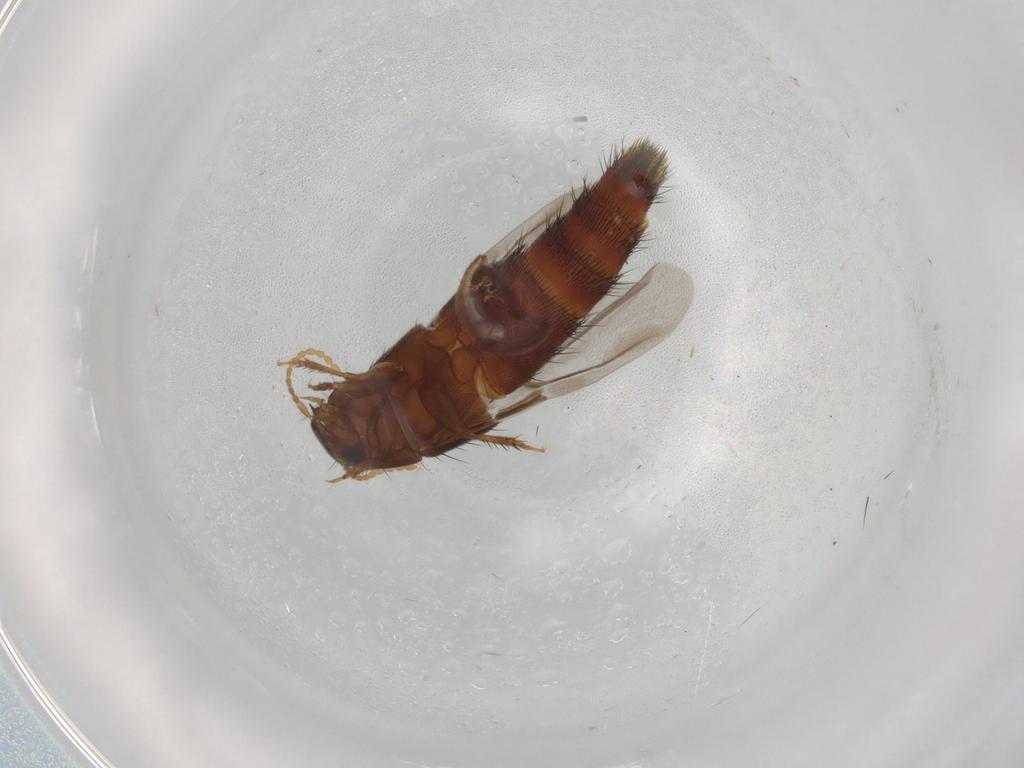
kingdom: Animalia
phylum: Arthropoda
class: Insecta
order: Coleoptera
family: Staphylinidae
